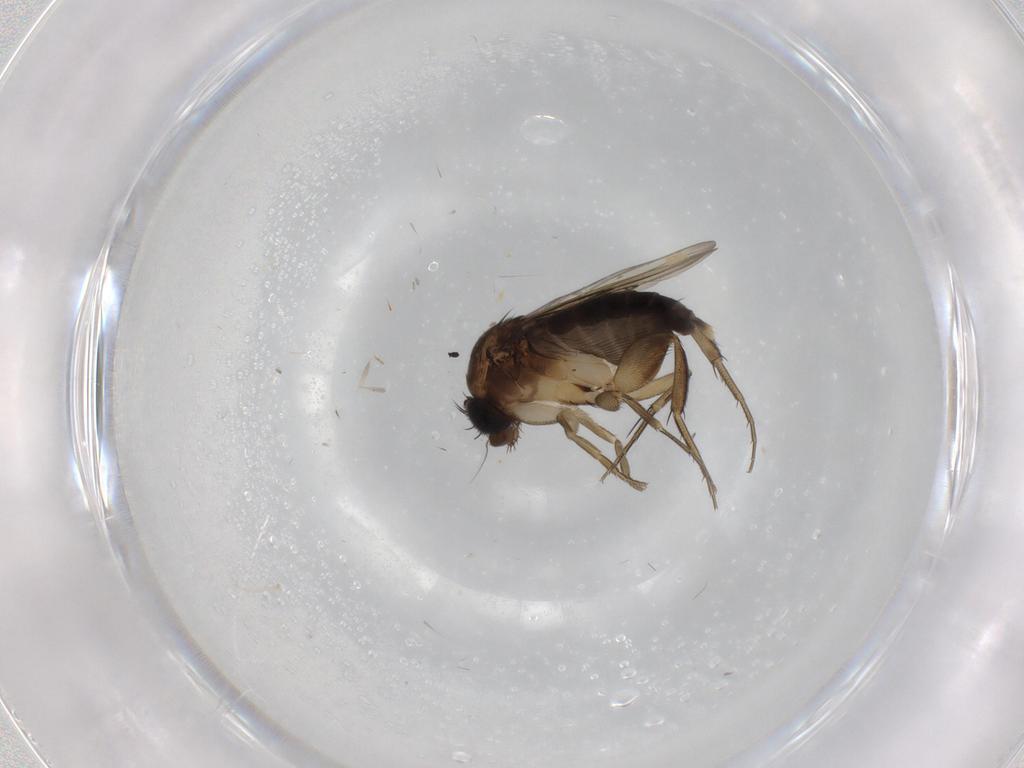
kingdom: Animalia
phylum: Arthropoda
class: Insecta
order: Diptera
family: Phoridae
